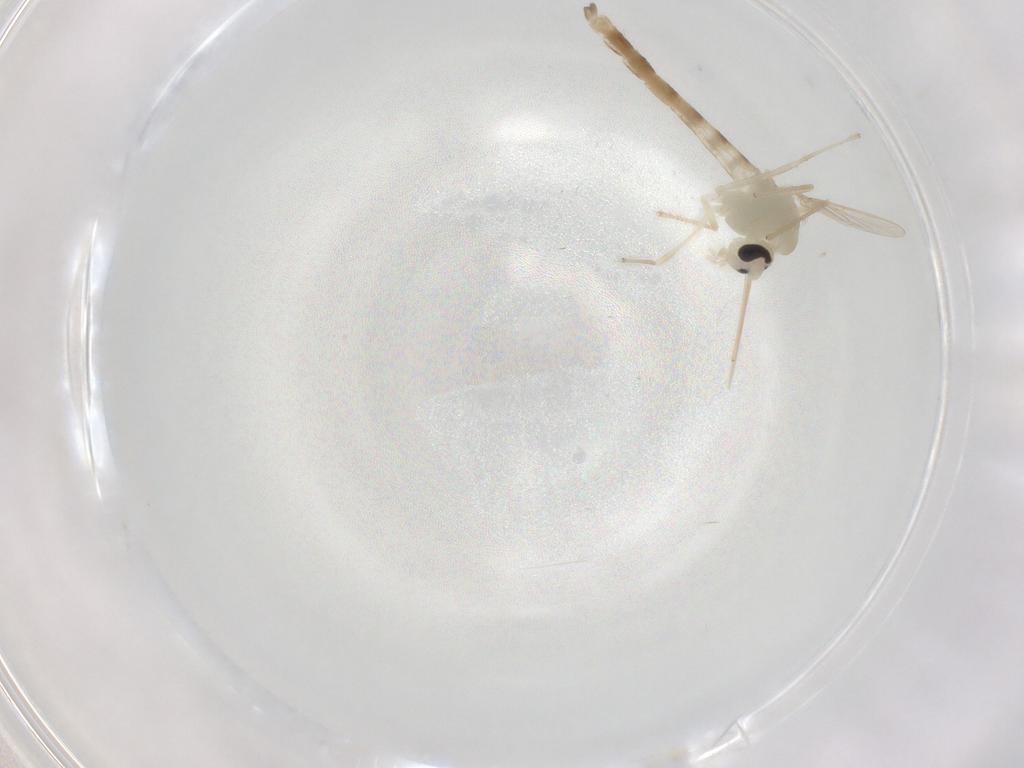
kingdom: Animalia
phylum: Arthropoda
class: Insecta
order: Diptera
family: Chironomidae
